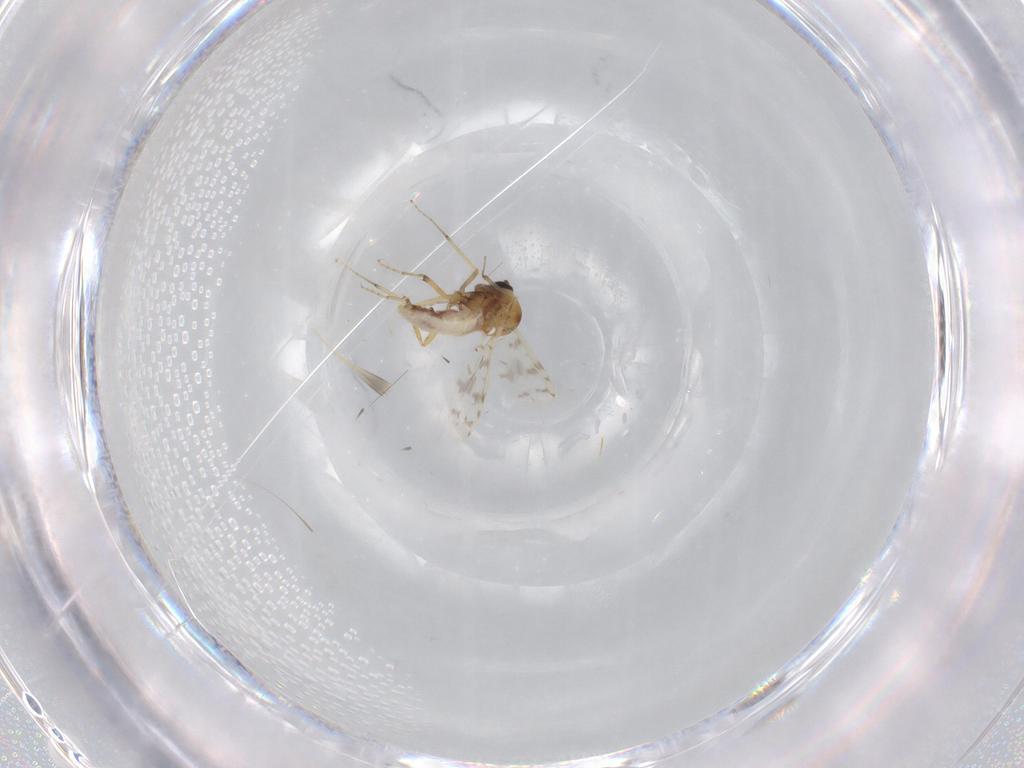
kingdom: Animalia
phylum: Arthropoda
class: Insecta
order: Diptera
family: Ceratopogonidae
